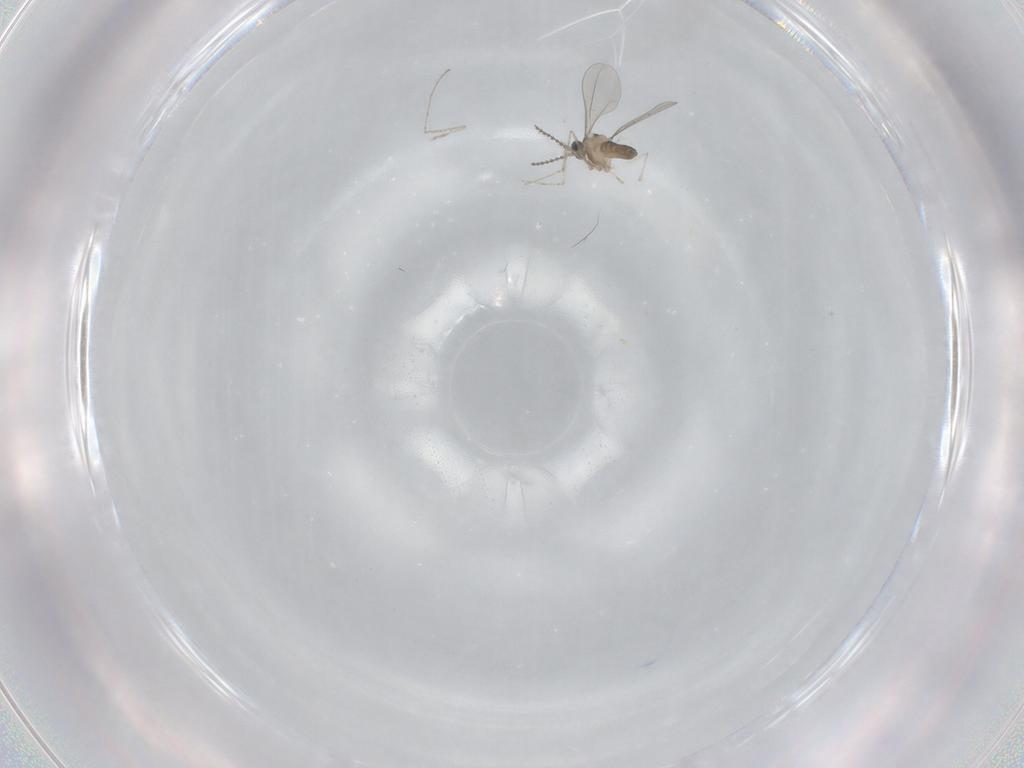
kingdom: Animalia
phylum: Arthropoda
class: Insecta
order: Diptera
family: Cecidomyiidae
